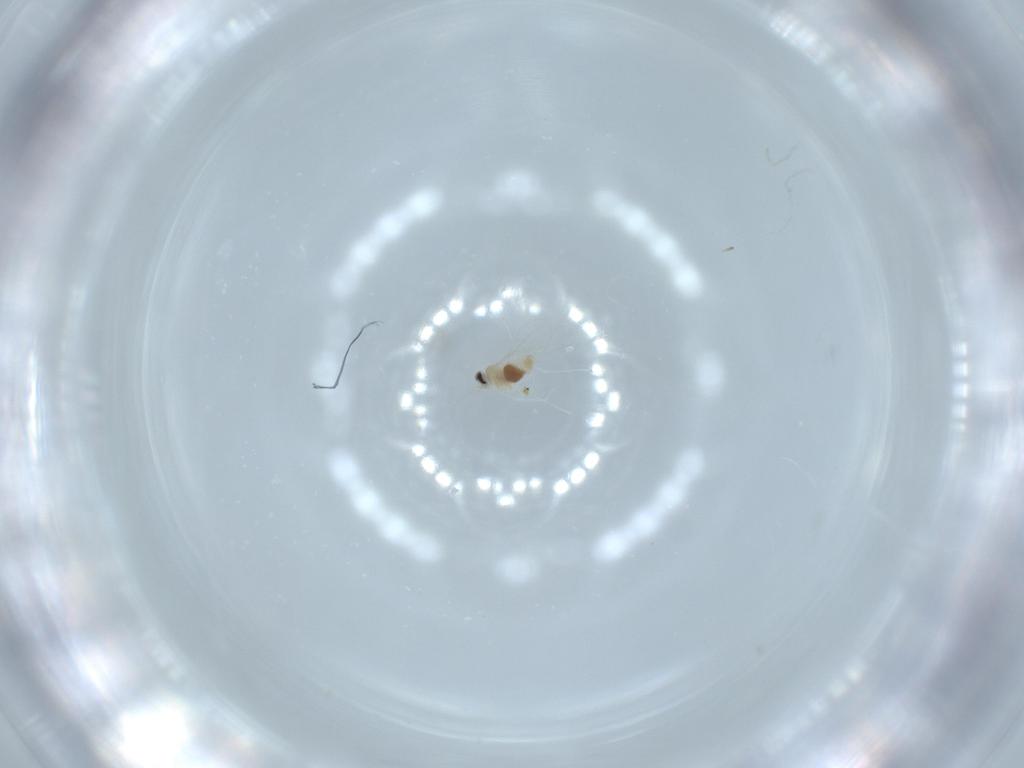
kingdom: Animalia
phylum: Arthropoda
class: Insecta
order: Diptera
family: Cecidomyiidae
